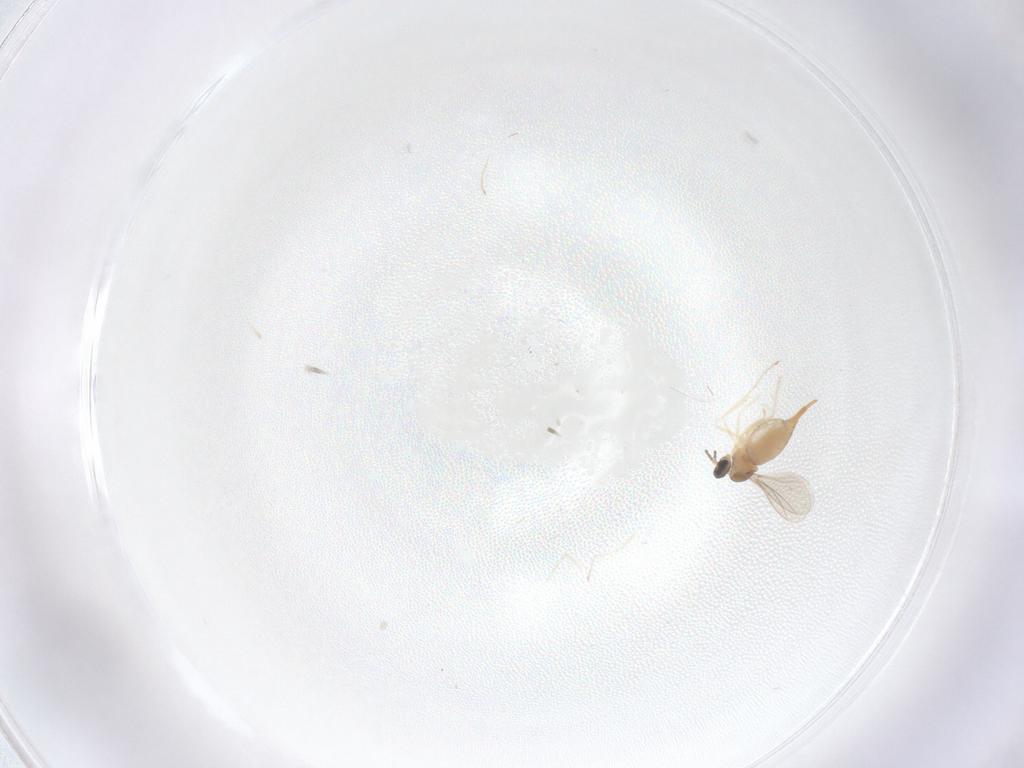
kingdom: Animalia
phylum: Arthropoda
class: Insecta
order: Diptera
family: Cecidomyiidae
